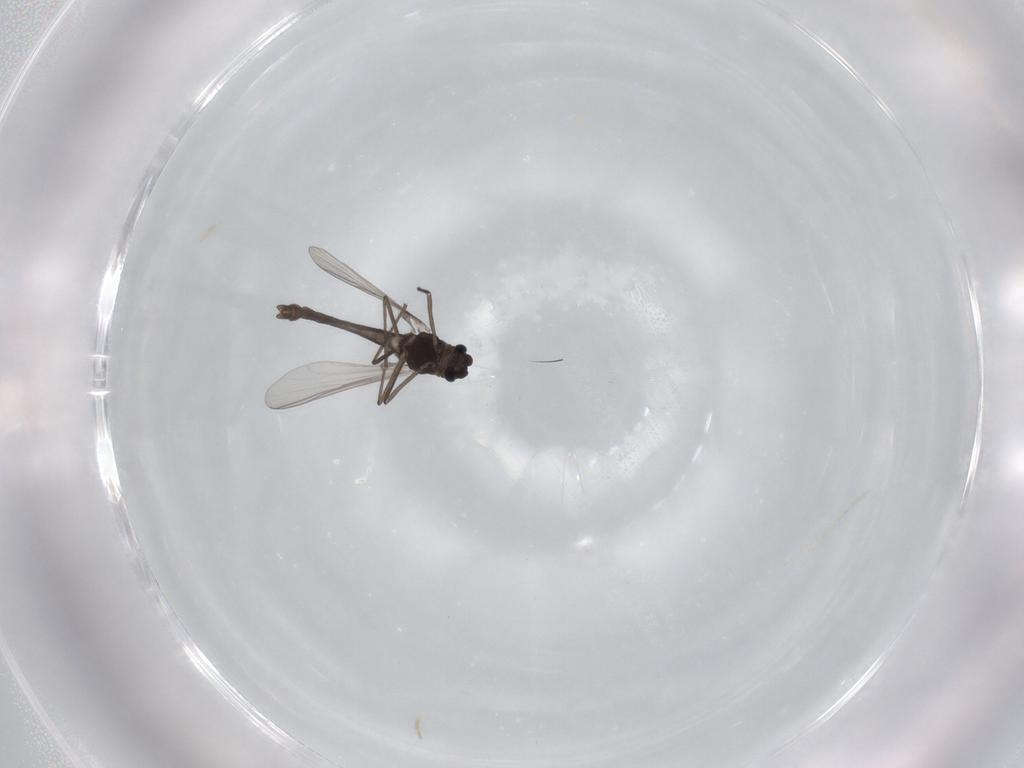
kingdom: Animalia
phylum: Arthropoda
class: Insecta
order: Diptera
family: Chironomidae
